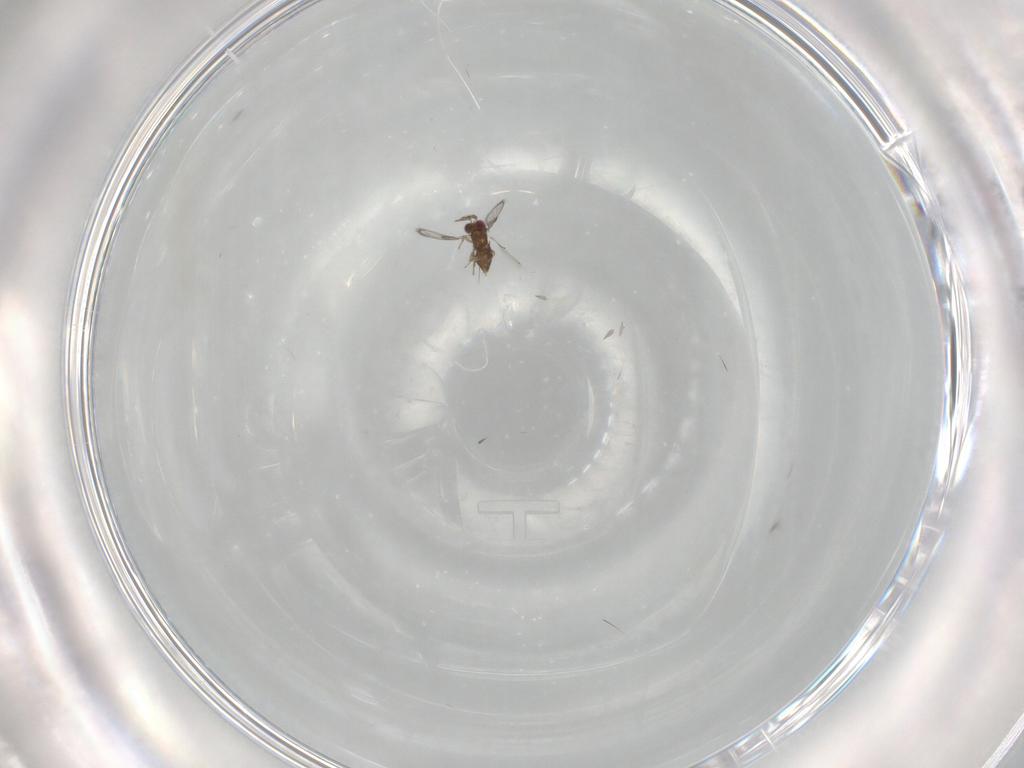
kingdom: Animalia
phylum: Arthropoda
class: Insecta
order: Hymenoptera
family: Trichogrammatidae
